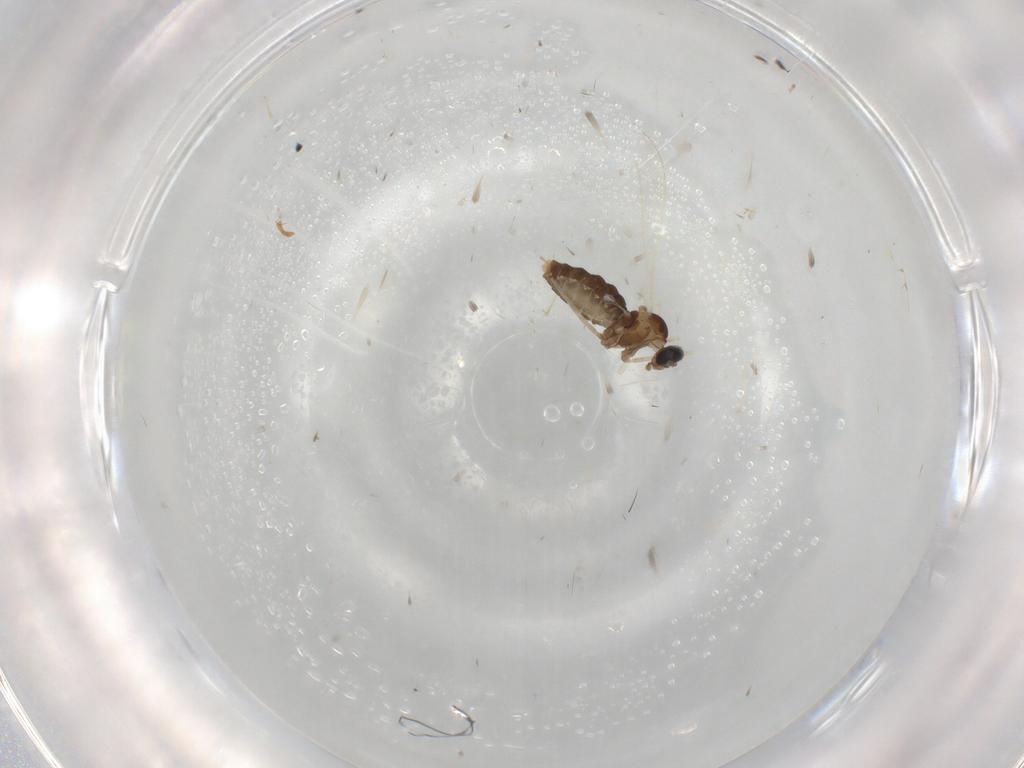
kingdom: Animalia
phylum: Arthropoda
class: Insecta
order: Diptera
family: Cecidomyiidae
